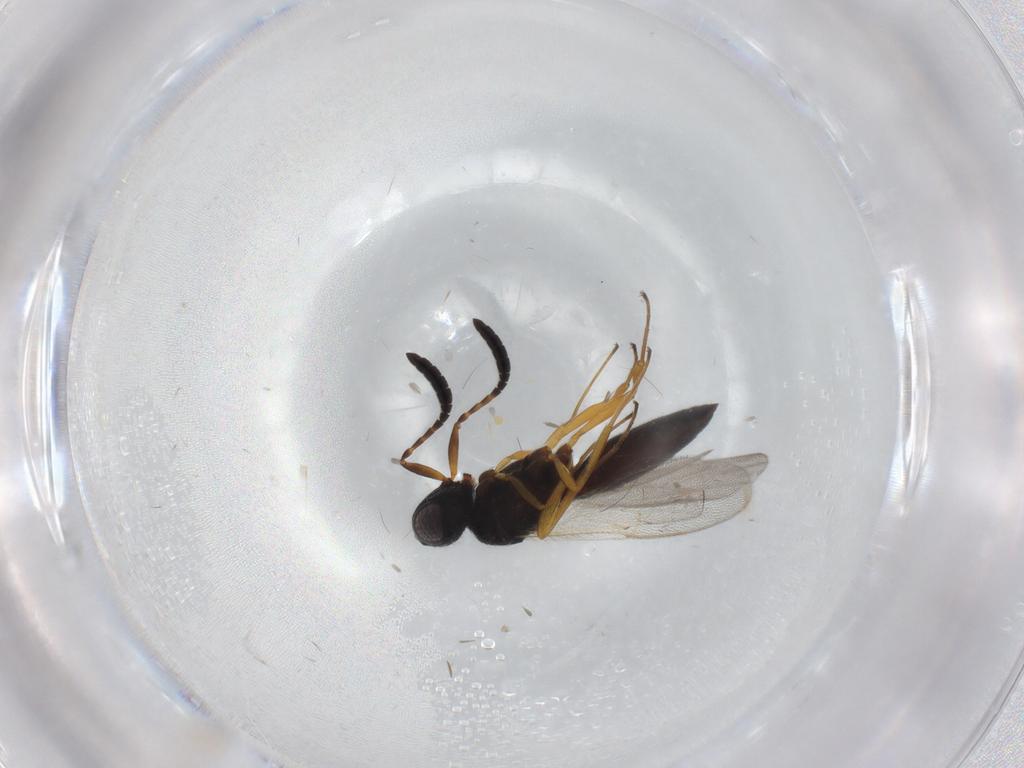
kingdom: Animalia
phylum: Arthropoda
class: Insecta
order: Hymenoptera
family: Scelionidae
